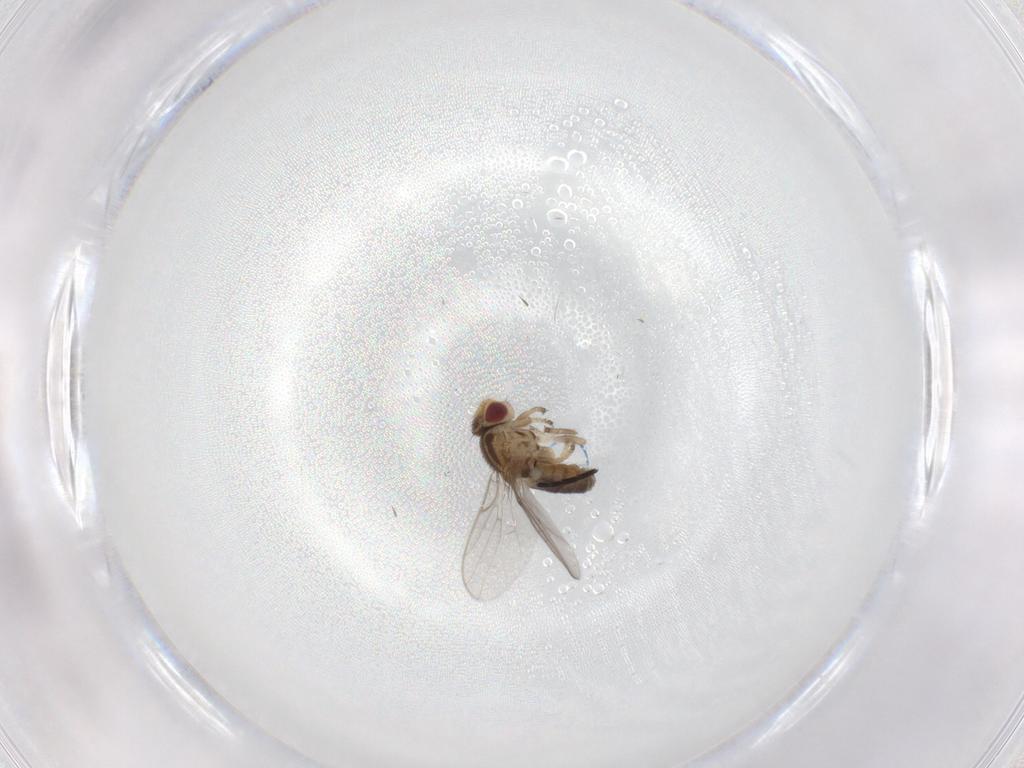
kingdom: Animalia
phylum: Arthropoda
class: Insecta
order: Diptera
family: Chloropidae
